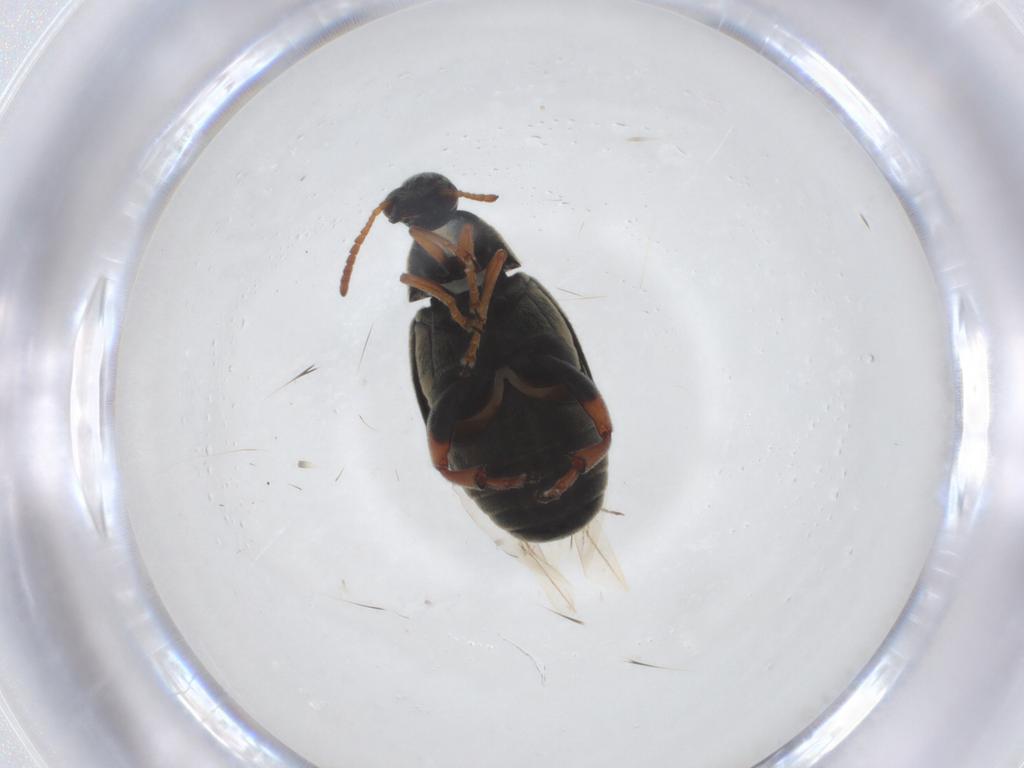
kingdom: Animalia
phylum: Arthropoda
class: Insecta
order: Coleoptera
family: Chrysomelidae
